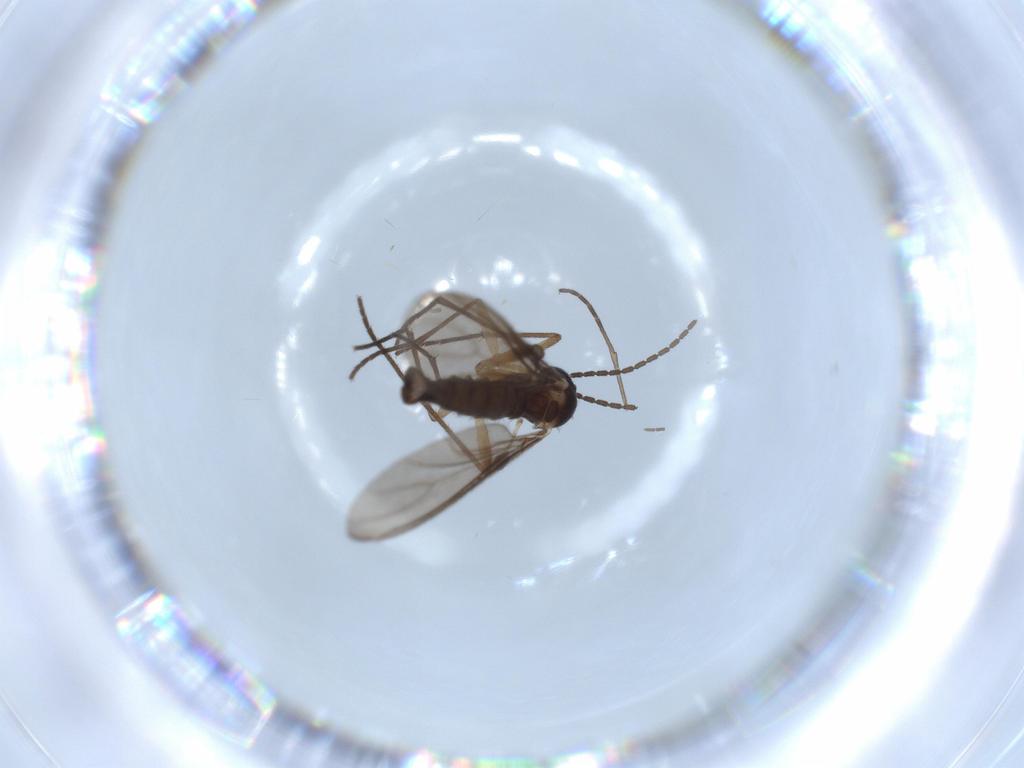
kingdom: Animalia
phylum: Arthropoda
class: Insecta
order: Diptera
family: Sciaridae
